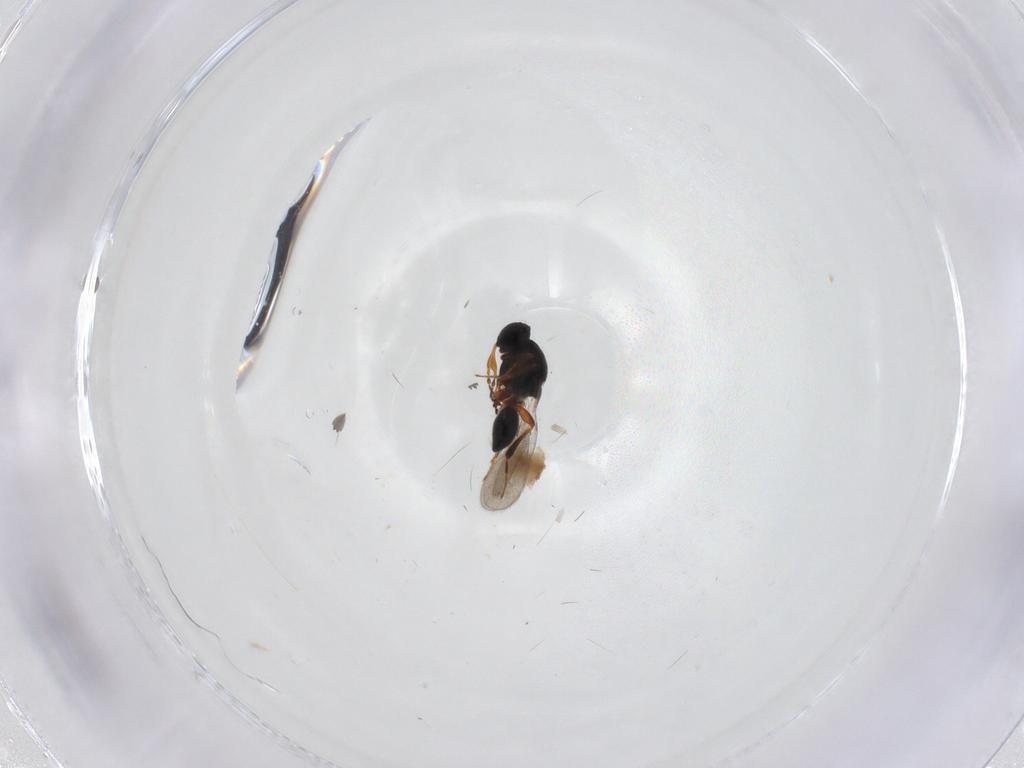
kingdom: Animalia
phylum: Arthropoda
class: Insecta
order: Hymenoptera
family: Platygastridae
